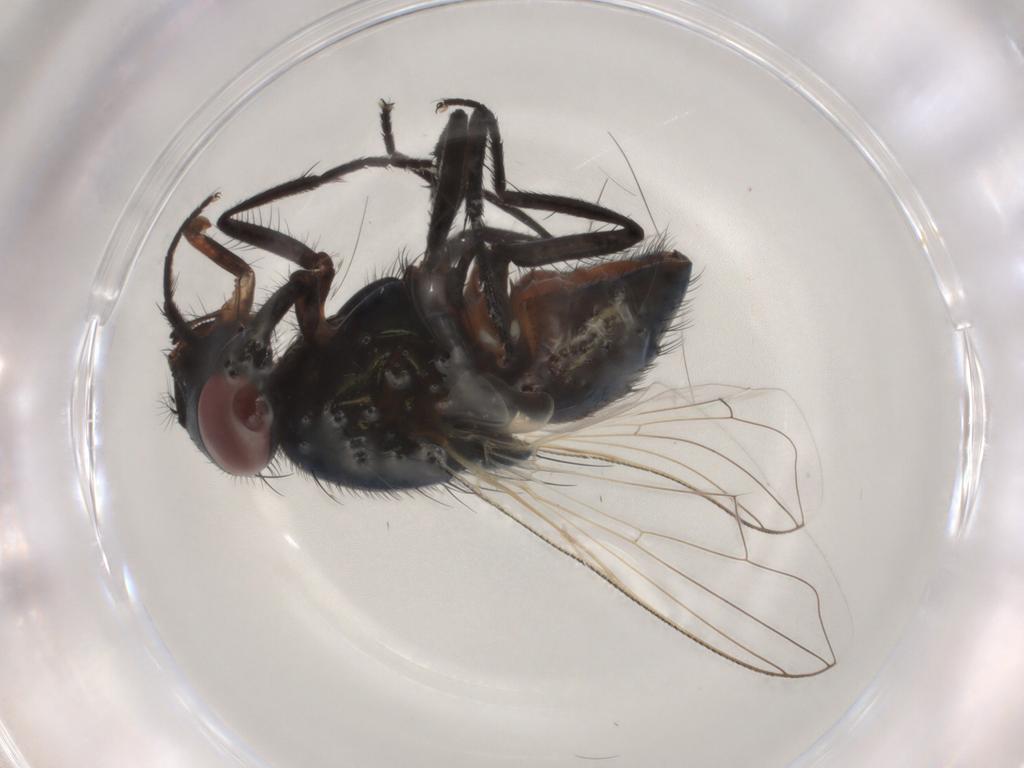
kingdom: Animalia
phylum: Arthropoda
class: Insecta
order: Diptera
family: Muscidae
